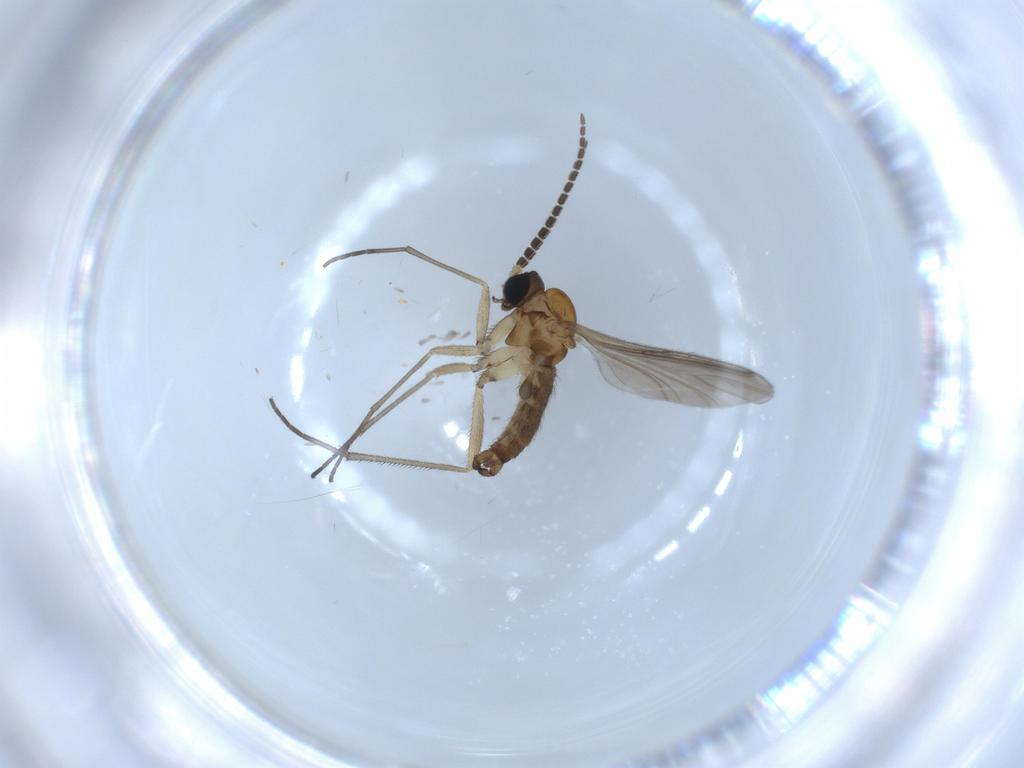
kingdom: Animalia
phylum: Arthropoda
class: Insecta
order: Diptera
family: Sciaridae
